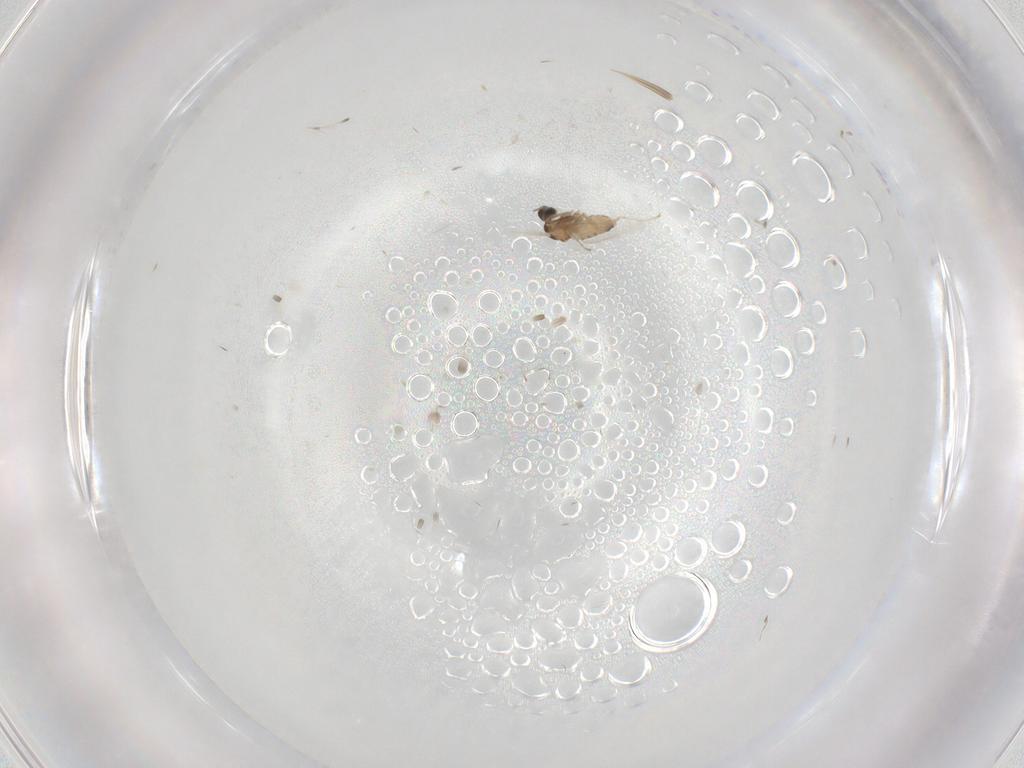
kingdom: Animalia
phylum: Arthropoda
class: Insecta
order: Diptera
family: Cecidomyiidae
